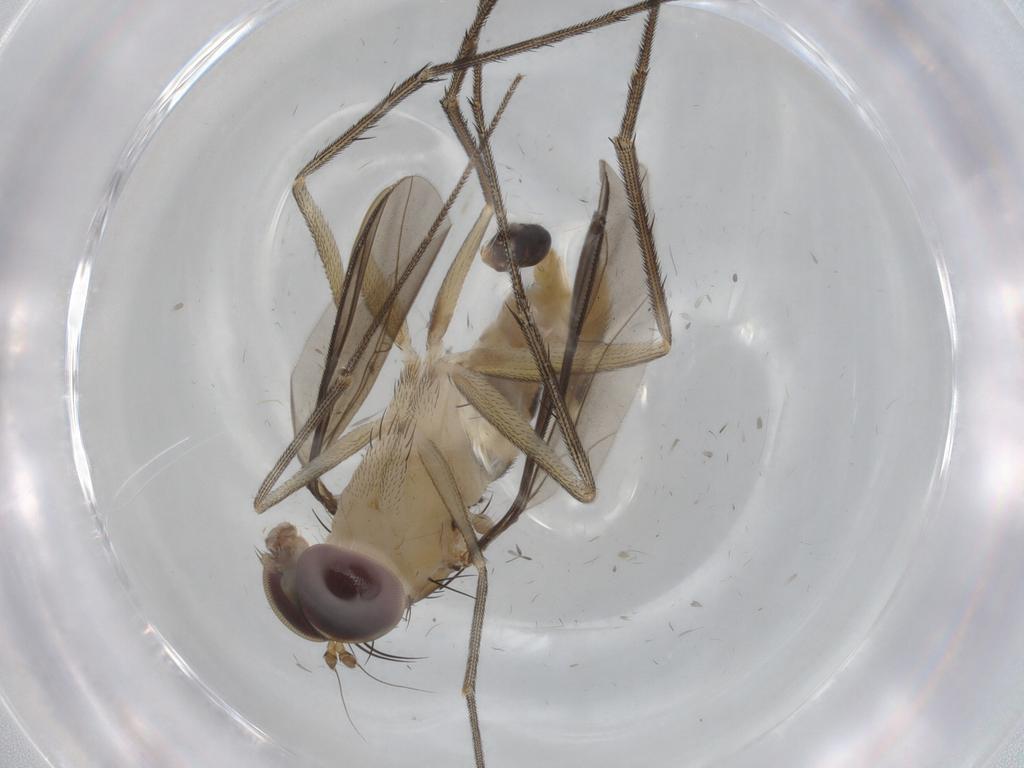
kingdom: Animalia
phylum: Arthropoda
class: Insecta
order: Diptera
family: Dolichopodidae
